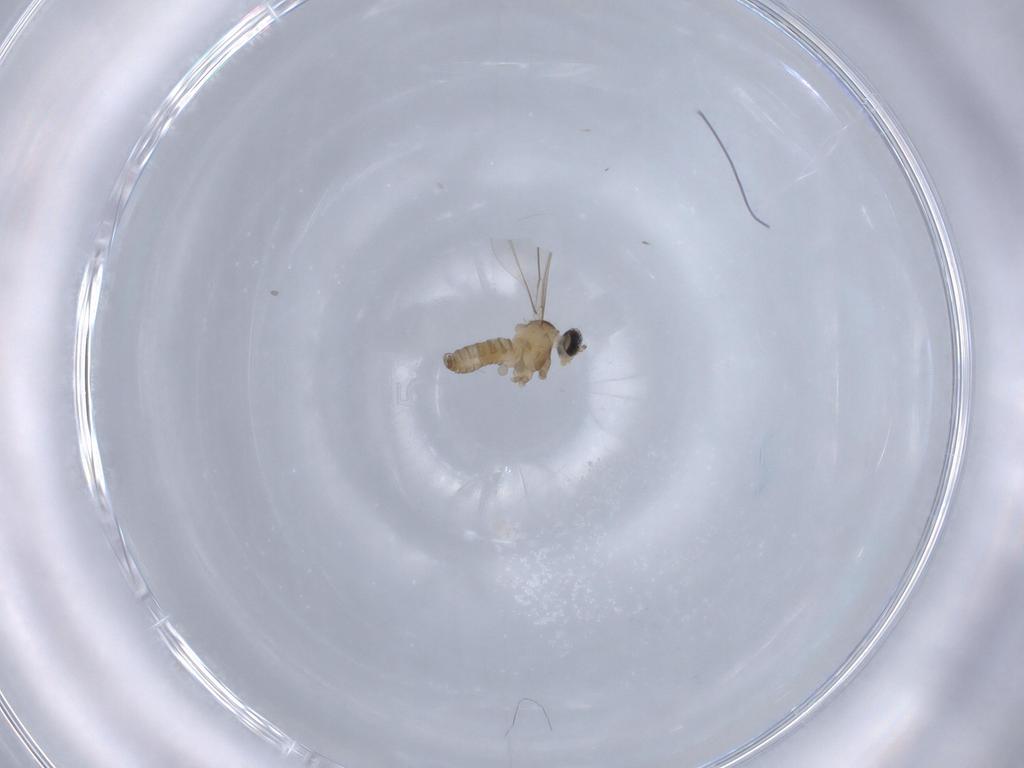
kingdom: Animalia
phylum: Arthropoda
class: Insecta
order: Diptera
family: Cecidomyiidae
